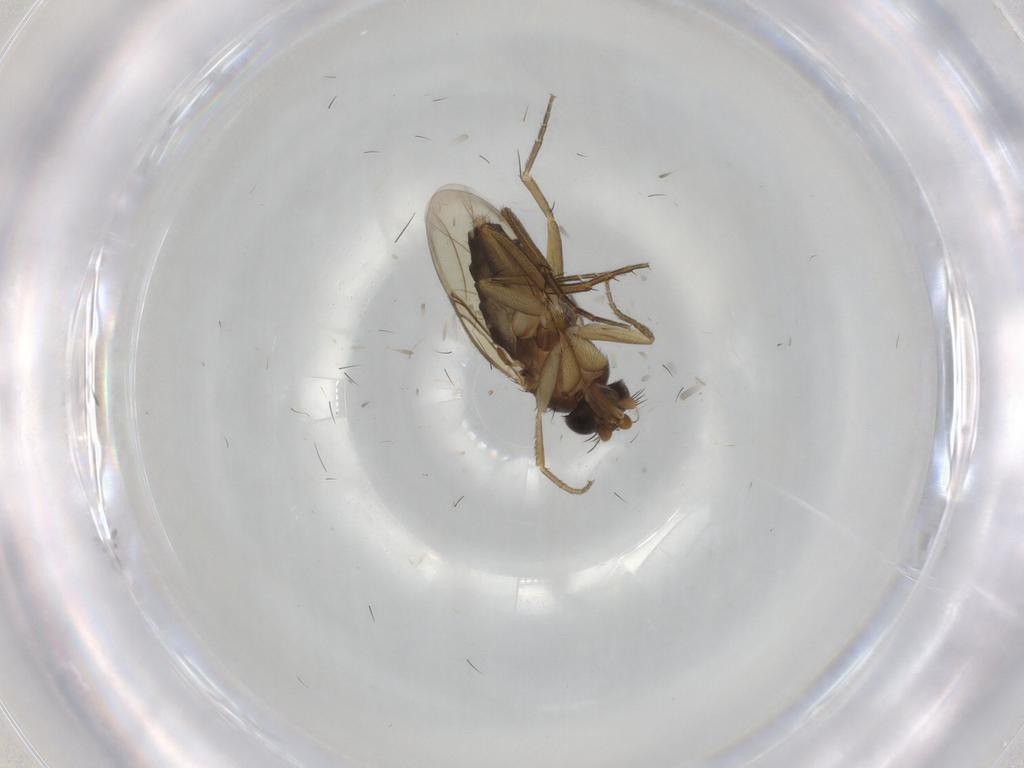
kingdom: Animalia
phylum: Arthropoda
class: Insecta
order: Diptera
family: Phoridae
